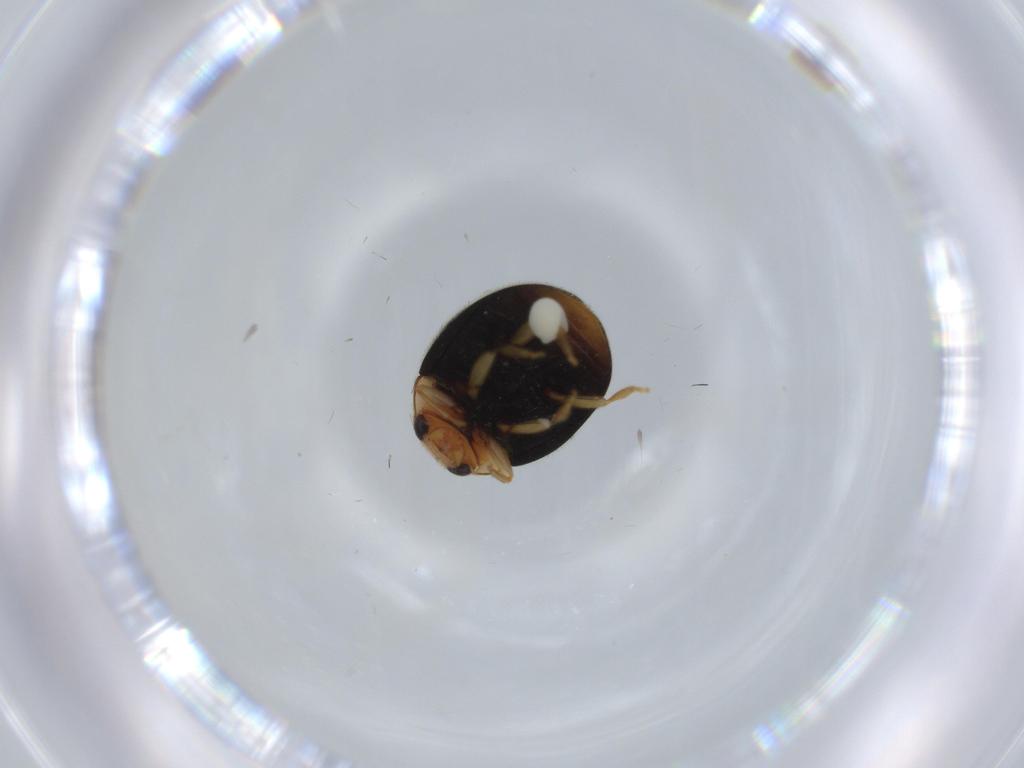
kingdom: Animalia
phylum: Arthropoda
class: Insecta
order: Coleoptera
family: Coccinellidae
